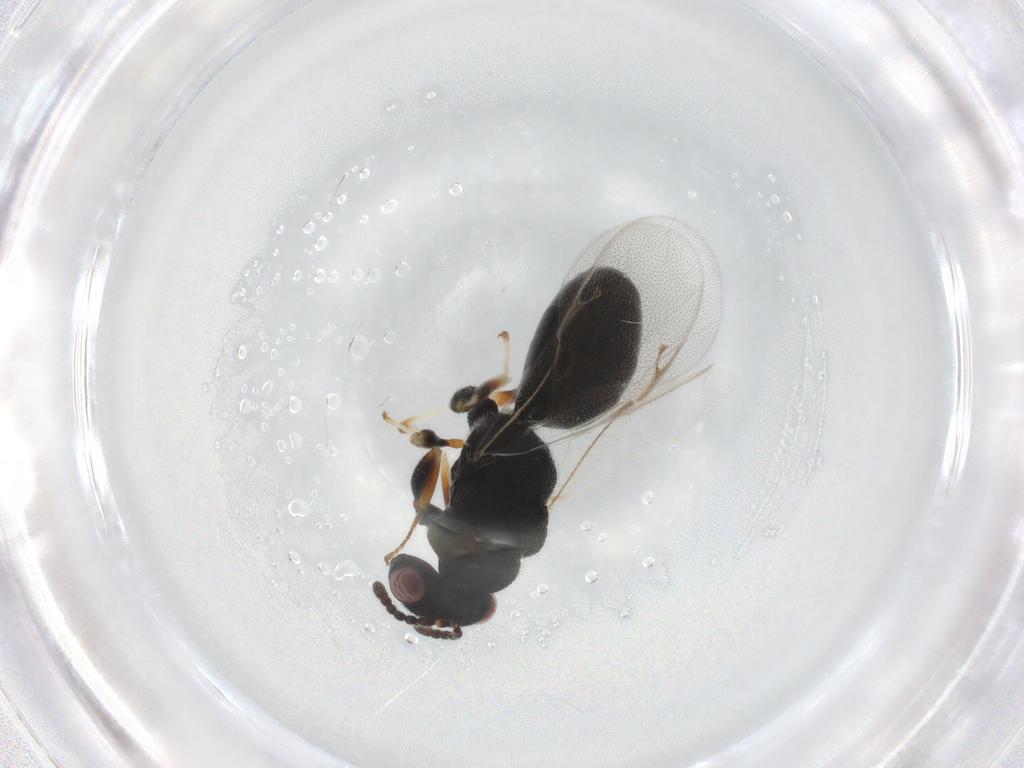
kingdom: Animalia
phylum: Arthropoda
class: Insecta
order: Hymenoptera
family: Eurytomidae
